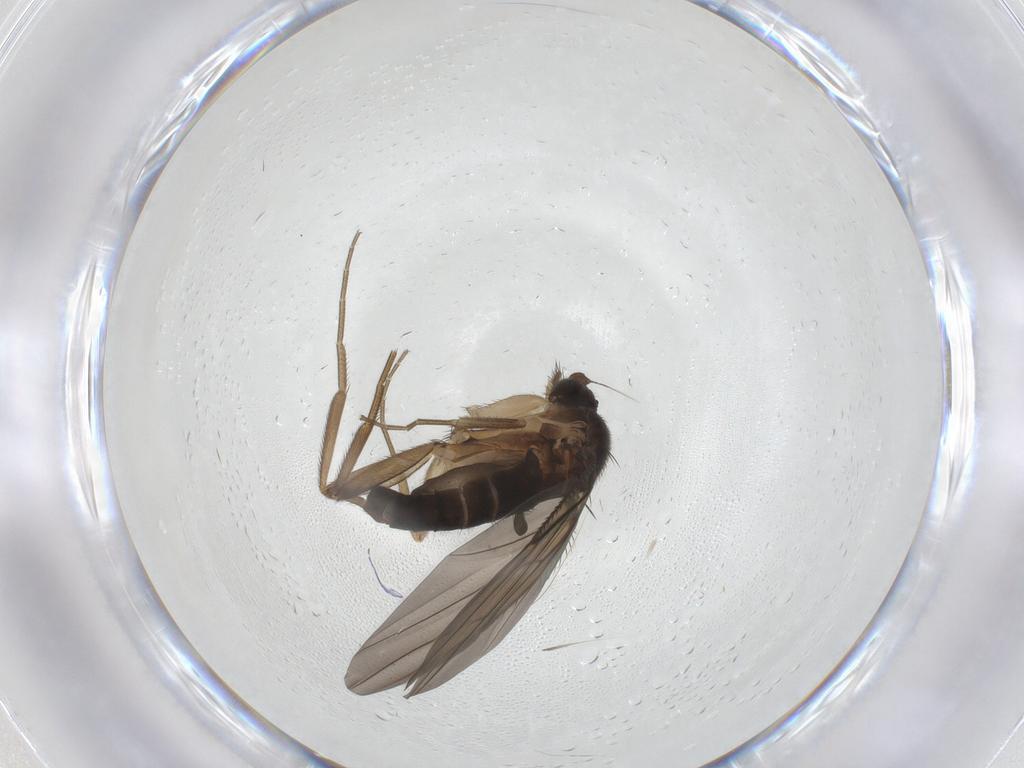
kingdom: Animalia
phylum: Arthropoda
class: Insecta
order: Diptera
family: Phoridae
